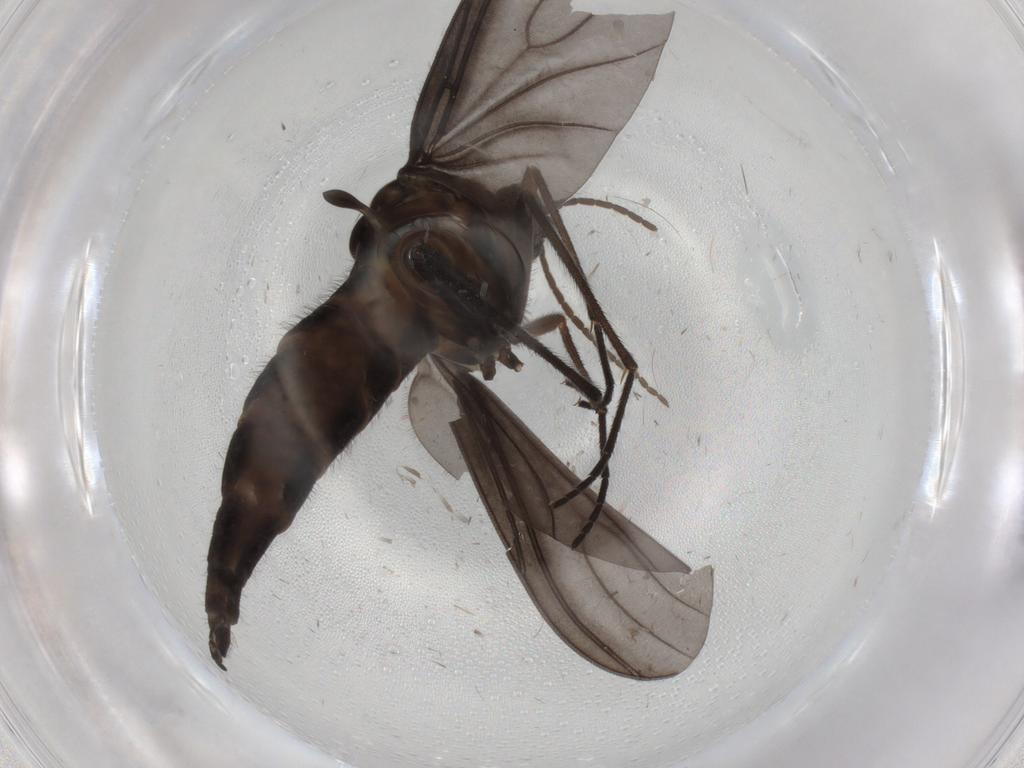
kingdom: Animalia
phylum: Arthropoda
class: Insecta
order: Diptera
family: Sciaridae
